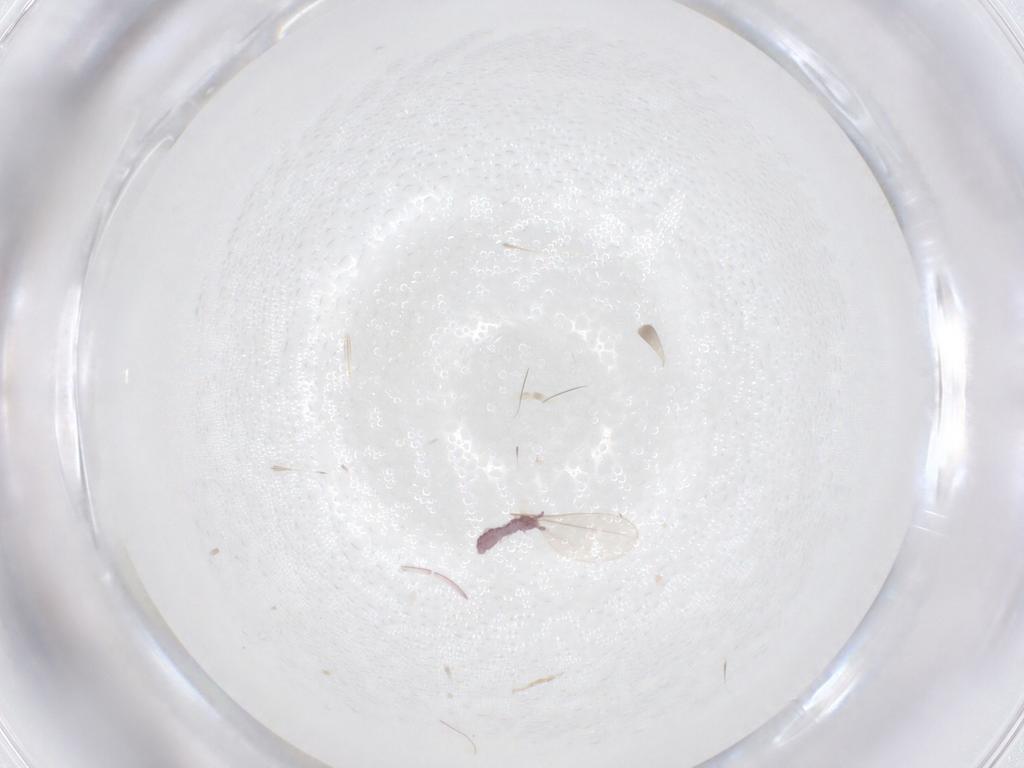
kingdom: Animalia
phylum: Arthropoda
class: Collembola
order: Poduromorpha
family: Hypogastruridae
